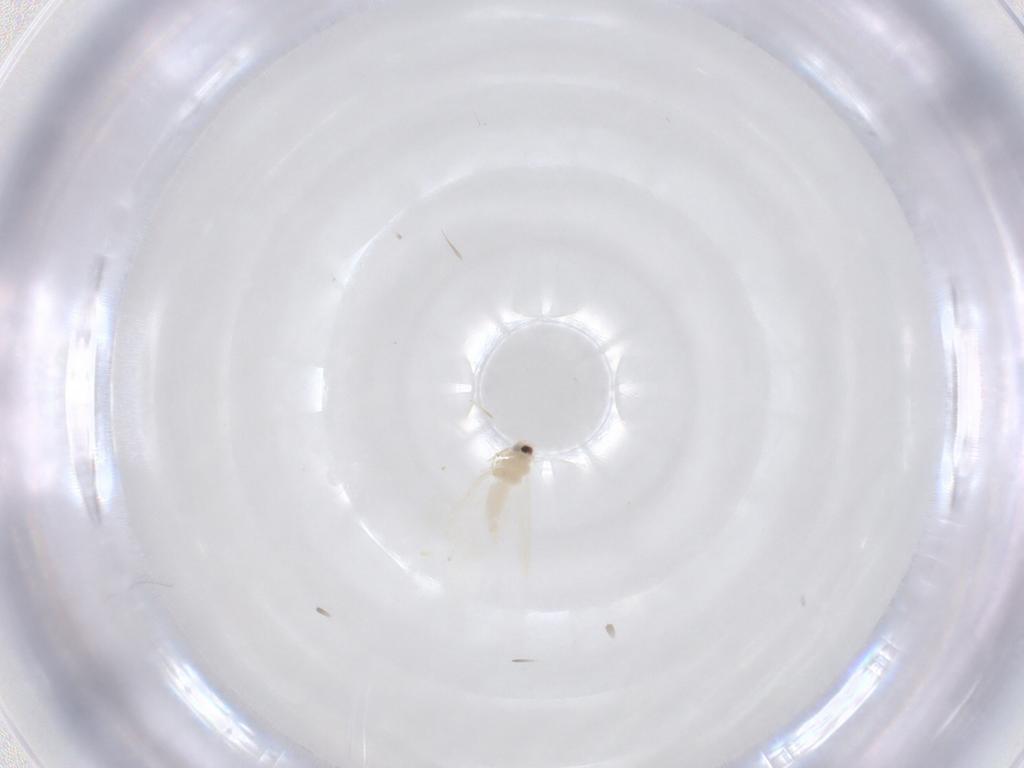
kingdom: Animalia
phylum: Arthropoda
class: Insecta
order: Hemiptera
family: Aleyrodidae
